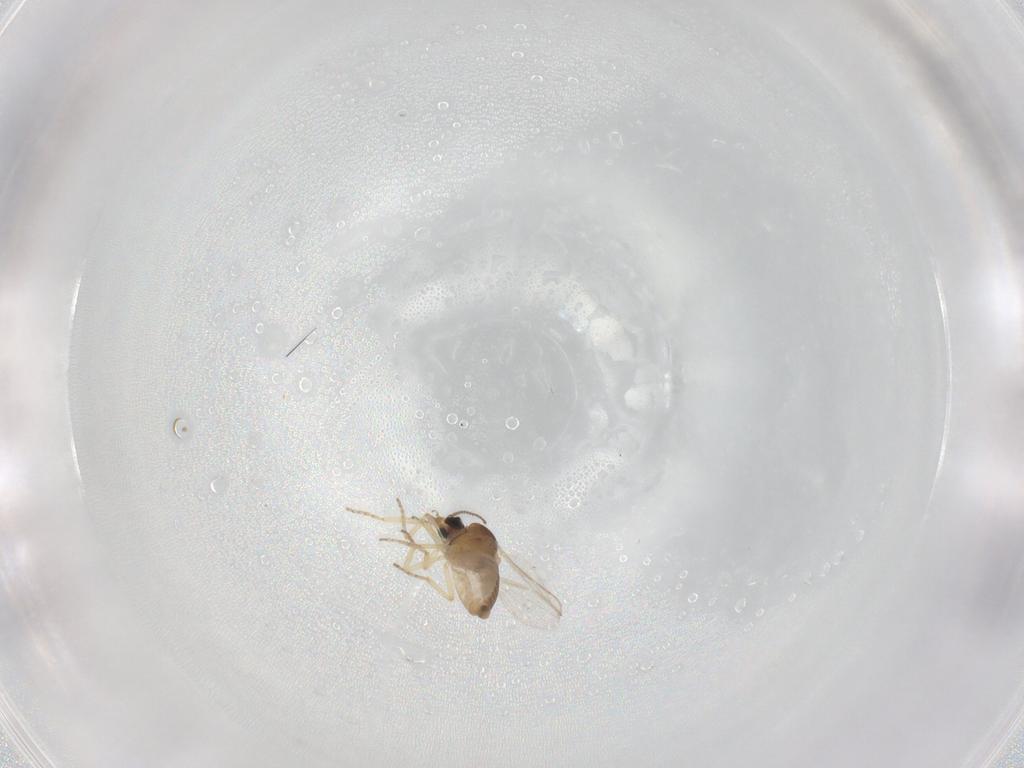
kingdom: Animalia
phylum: Arthropoda
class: Insecta
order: Diptera
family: Ceratopogonidae
